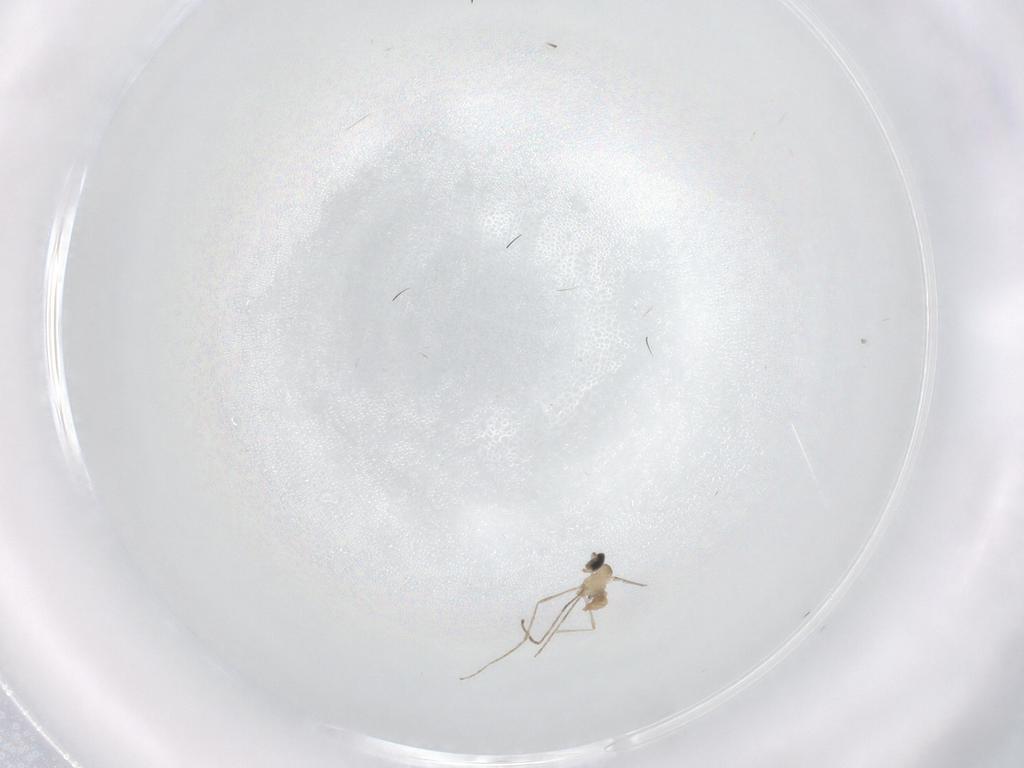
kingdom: Animalia
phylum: Arthropoda
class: Insecta
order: Diptera
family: Cecidomyiidae
